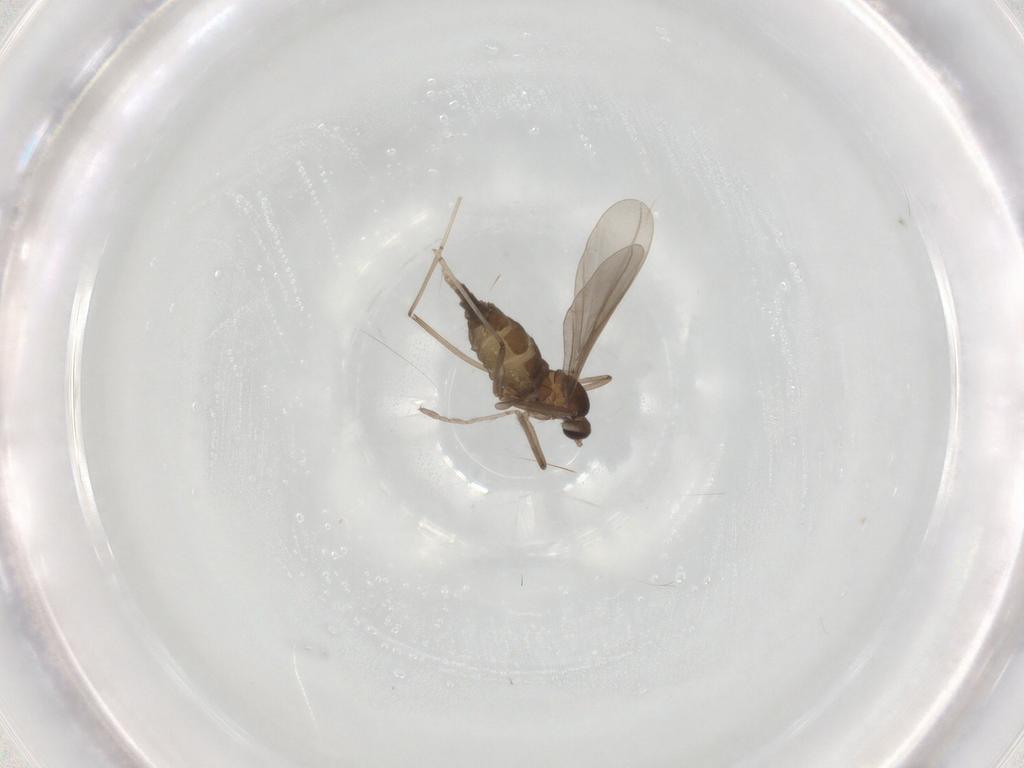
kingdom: Animalia
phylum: Arthropoda
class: Insecta
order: Diptera
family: Cecidomyiidae
